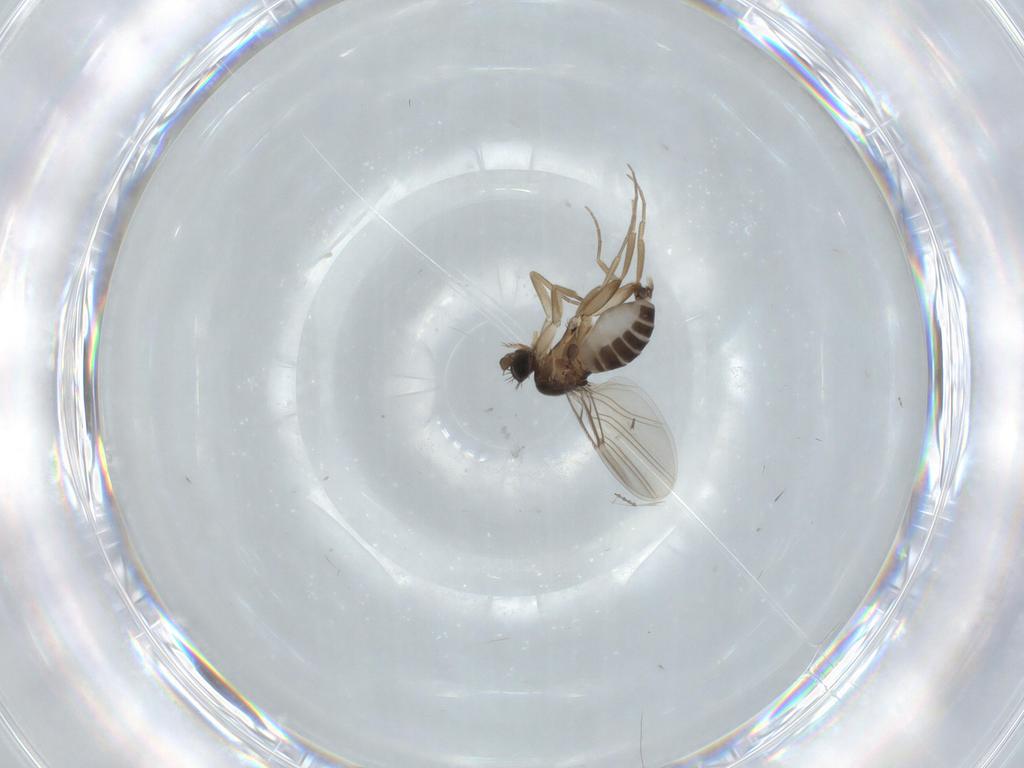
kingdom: Animalia
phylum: Arthropoda
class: Insecta
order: Diptera
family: Phoridae
